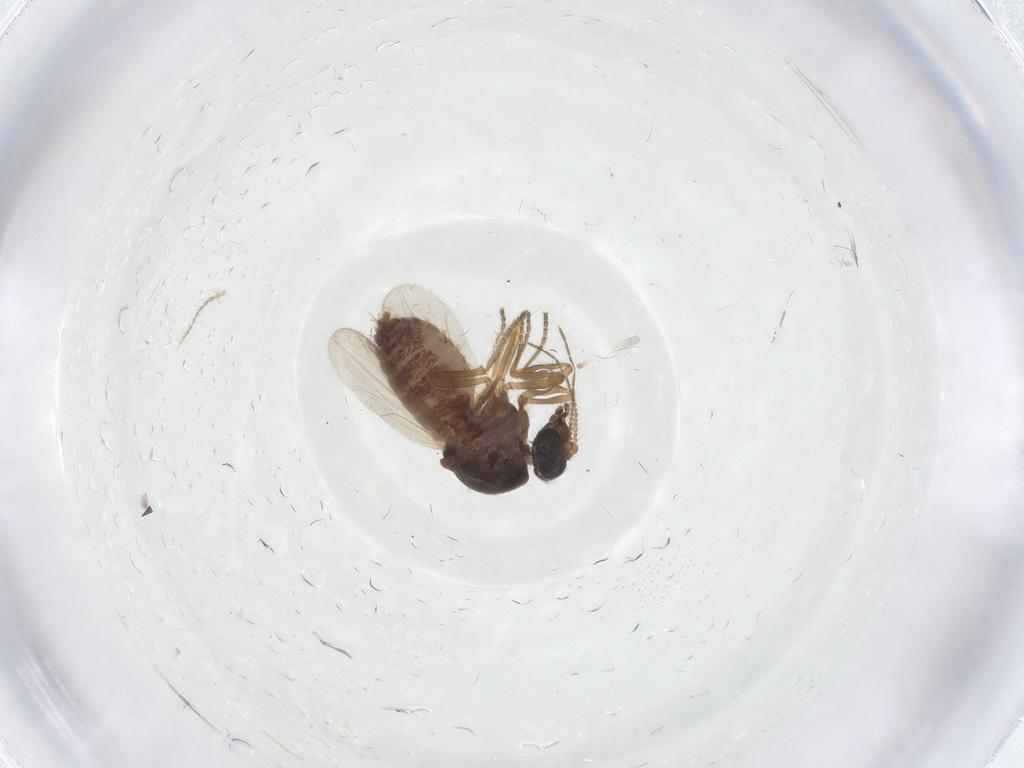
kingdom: Animalia
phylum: Arthropoda
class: Insecta
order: Diptera
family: Ceratopogonidae
